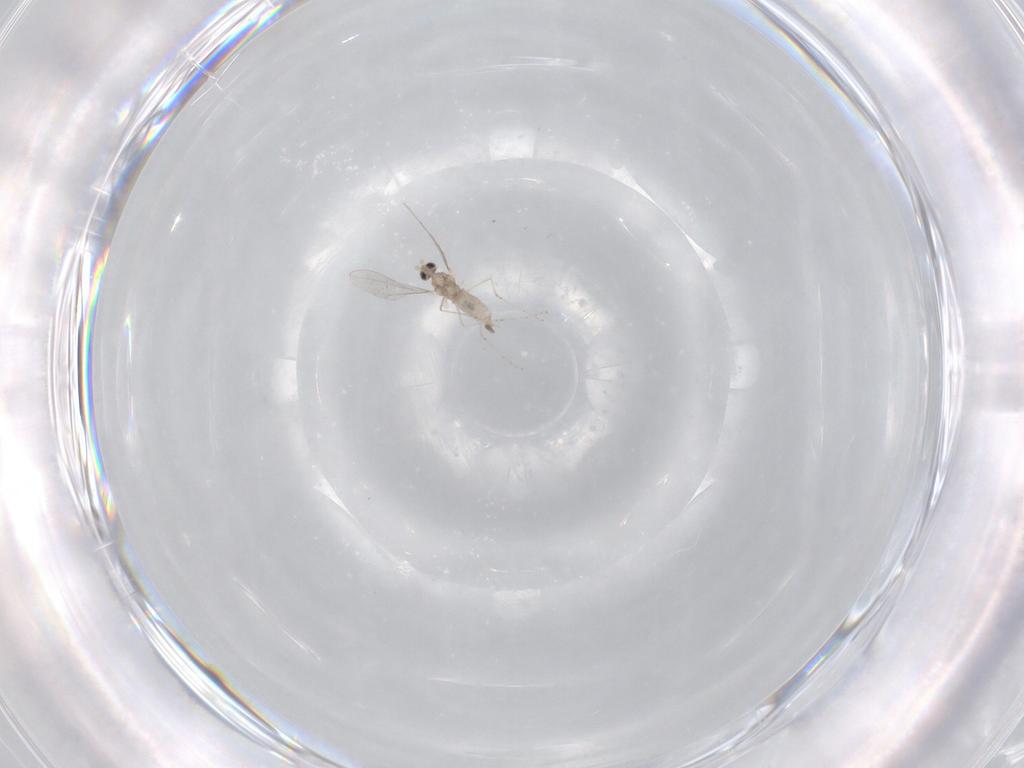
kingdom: Animalia
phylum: Arthropoda
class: Insecta
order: Diptera
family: Cecidomyiidae
